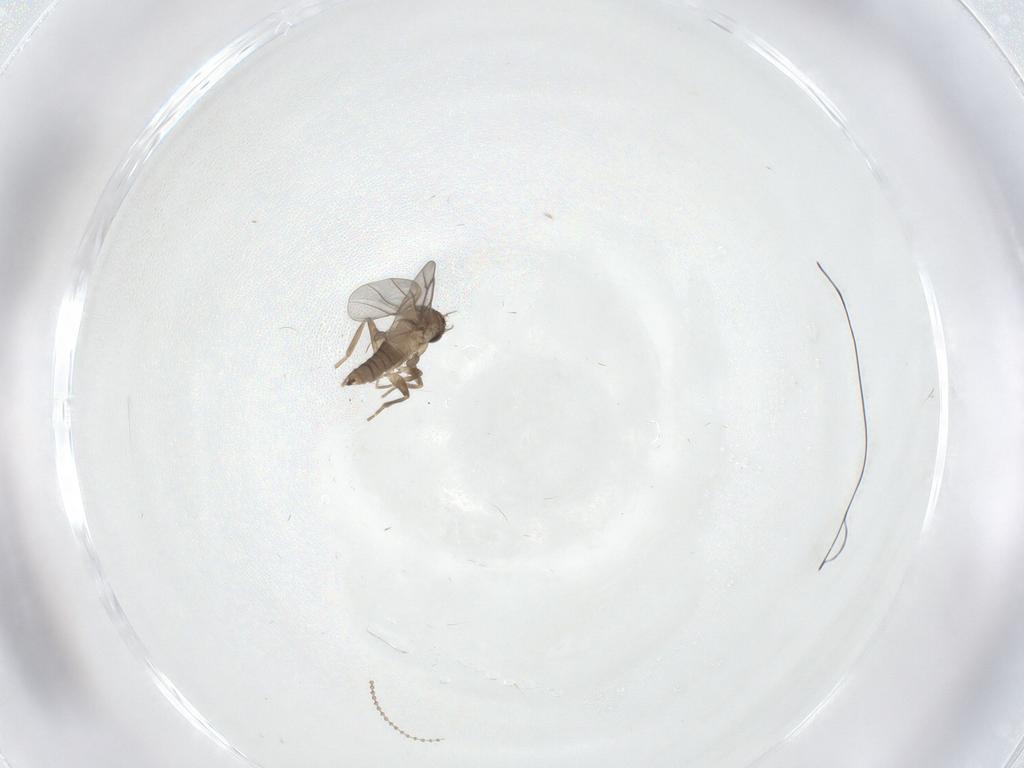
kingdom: Animalia
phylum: Arthropoda
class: Insecta
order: Diptera
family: Cecidomyiidae
